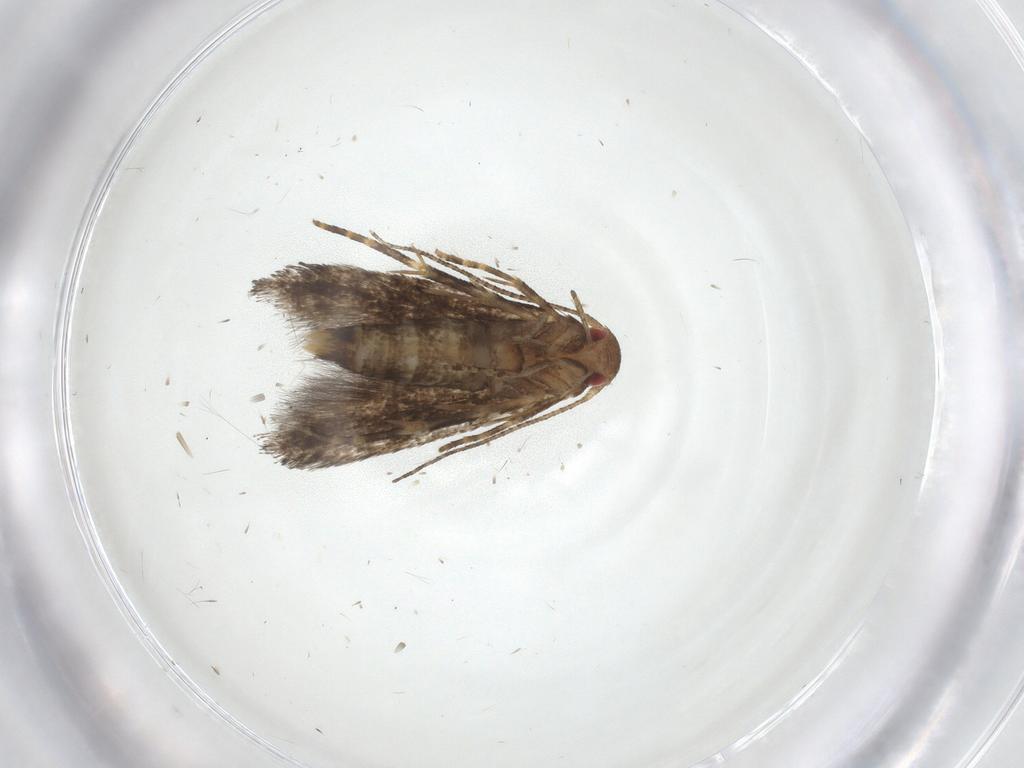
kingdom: Animalia
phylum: Arthropoda
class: Insecta
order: Lepidoptera
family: Momphidae
